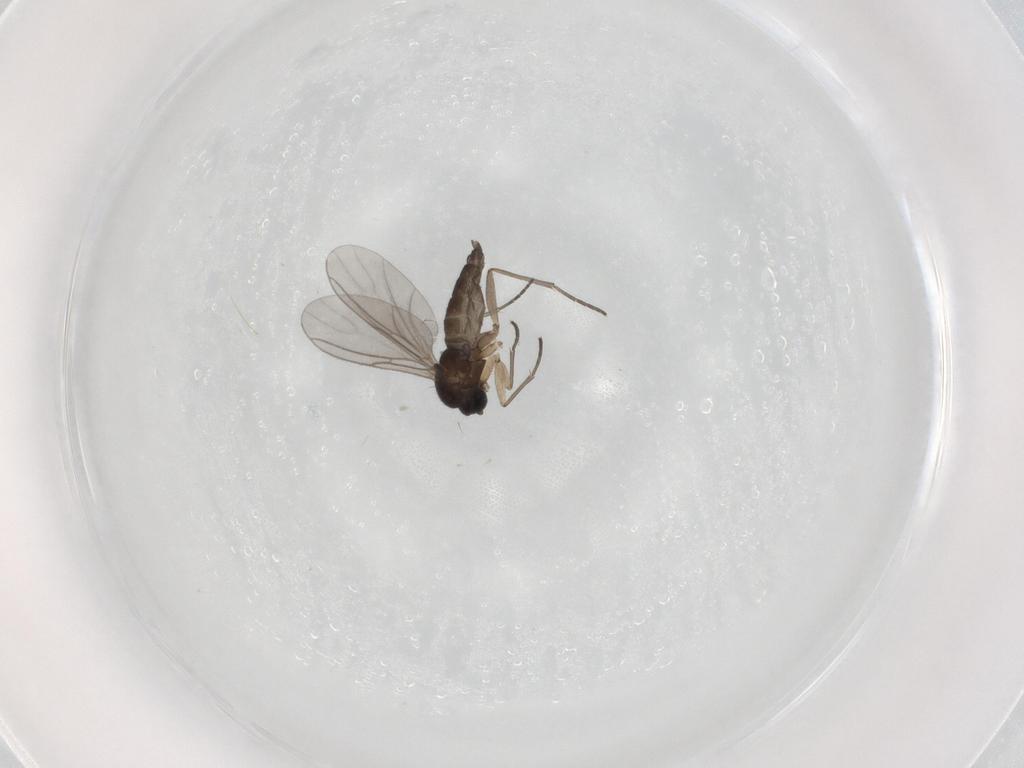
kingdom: Animalia
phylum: Arthropoda
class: Insecta
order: Diptera
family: Sciaridae
